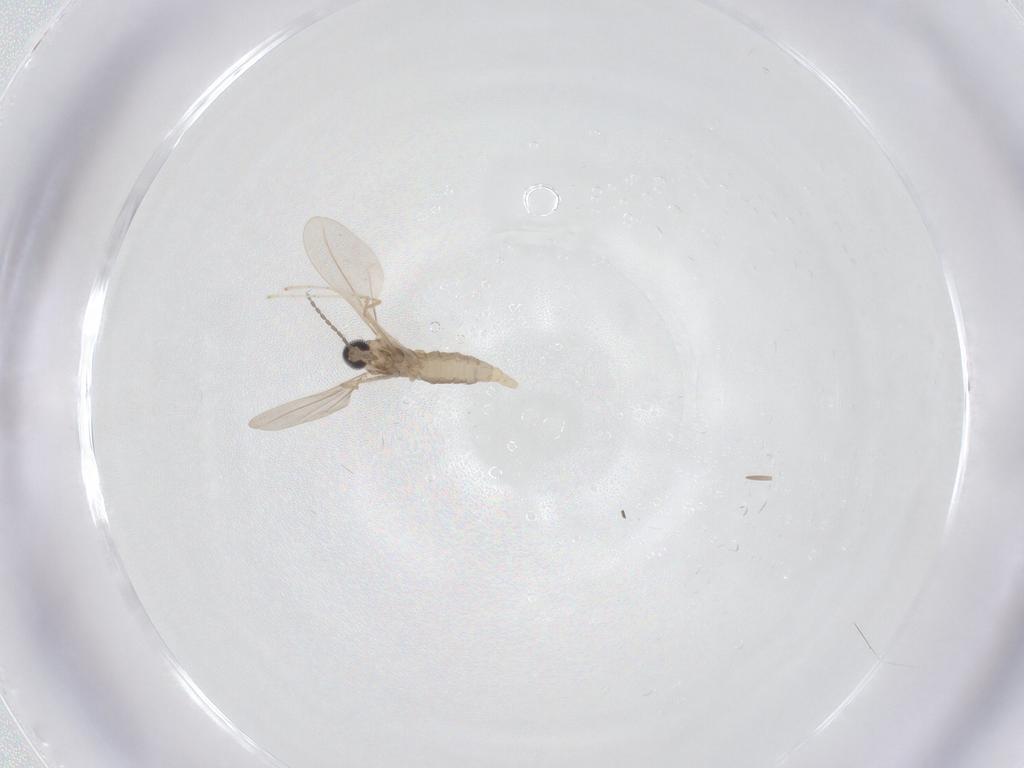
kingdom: Animalia
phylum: Arthropoda
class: Insecta
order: Diptera
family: Cecidomyiidae
